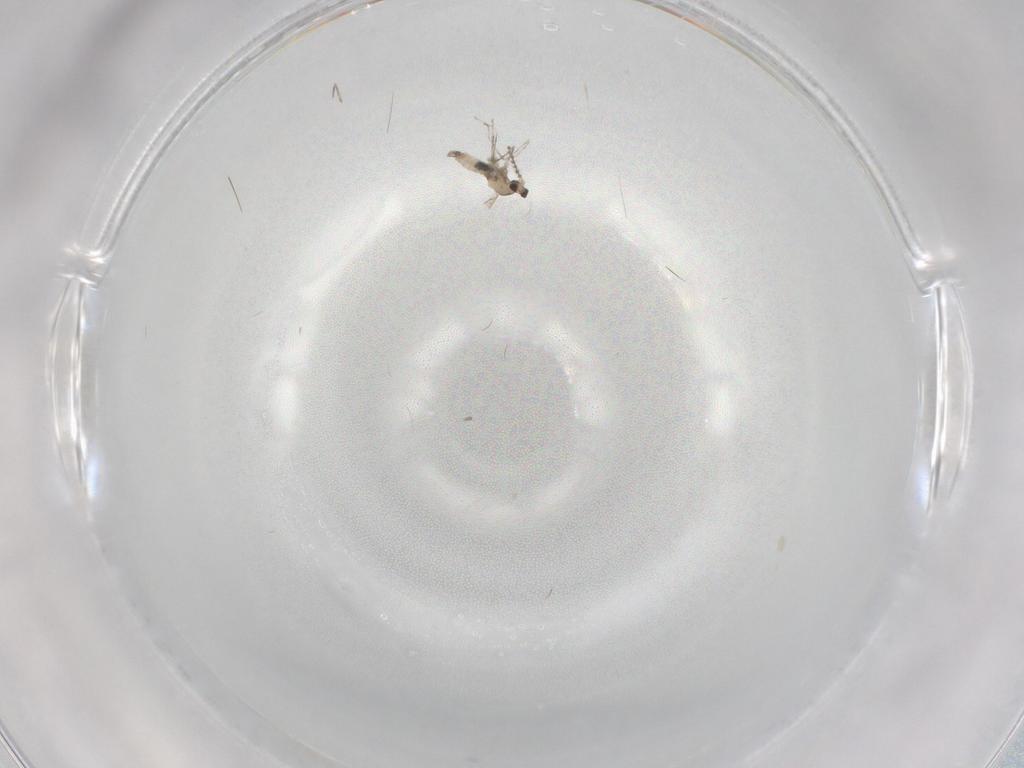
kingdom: Animalia
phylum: Arthropoda
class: Insecta
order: Diptera
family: Cecidomyiidae
